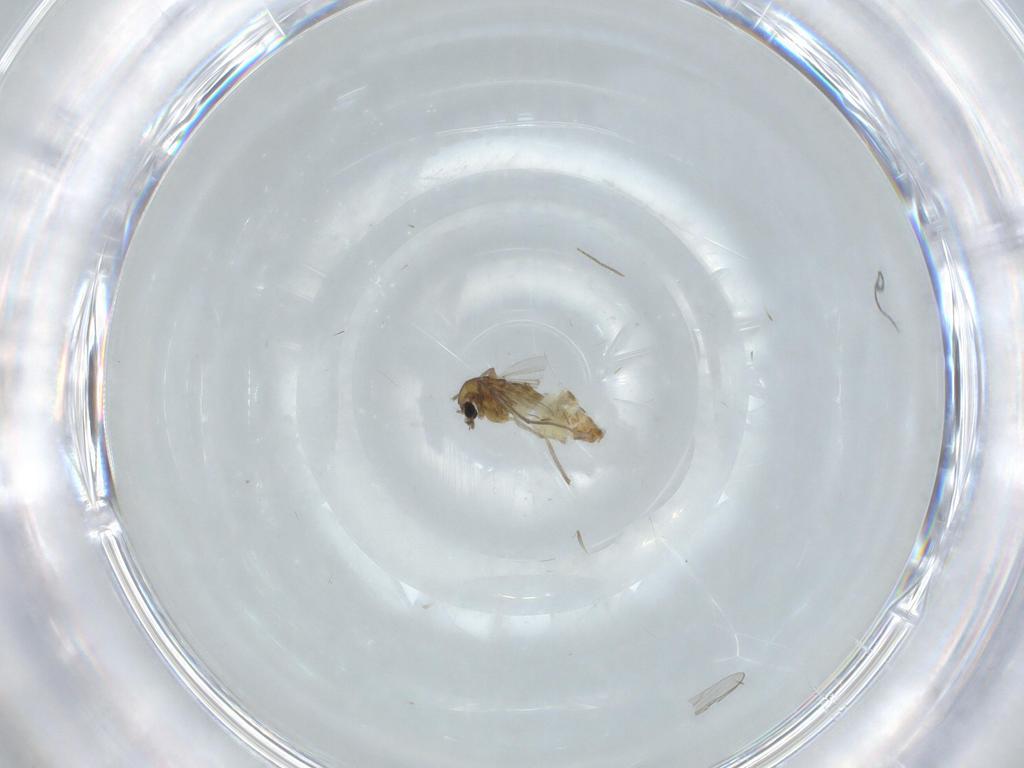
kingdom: Animalia
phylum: Arthropoda
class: Insecta
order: Diptera
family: Chironomidae
